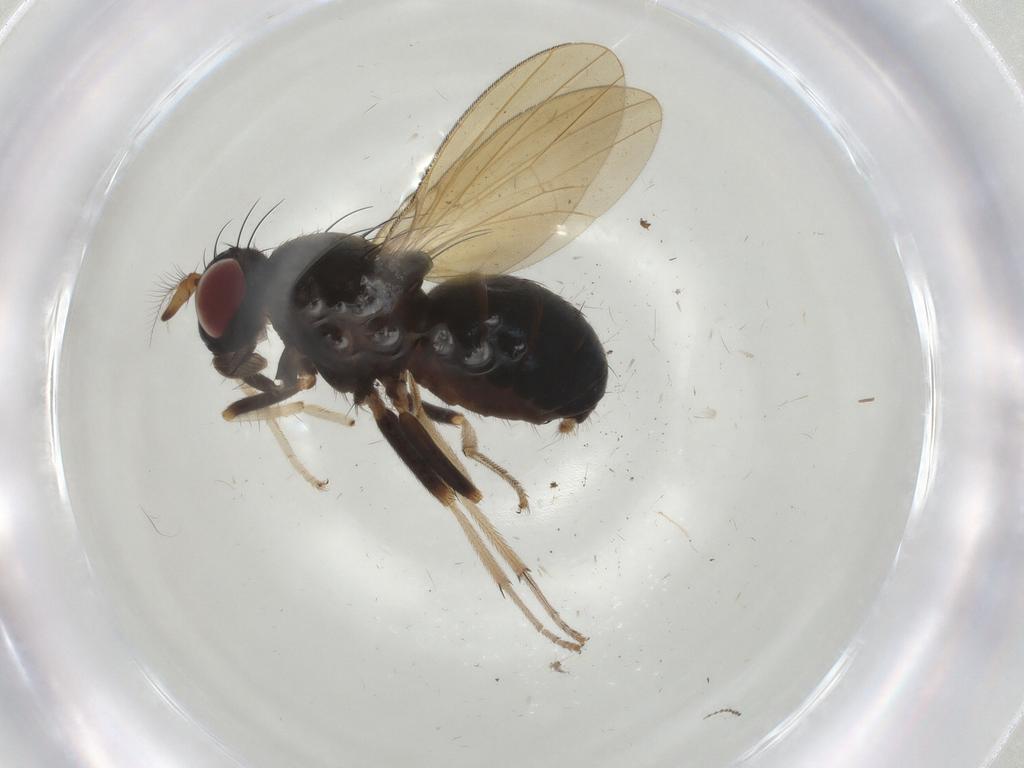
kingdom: Animalia
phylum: Arthropoda
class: Insecta
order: Diptera
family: Lauxaniidae
